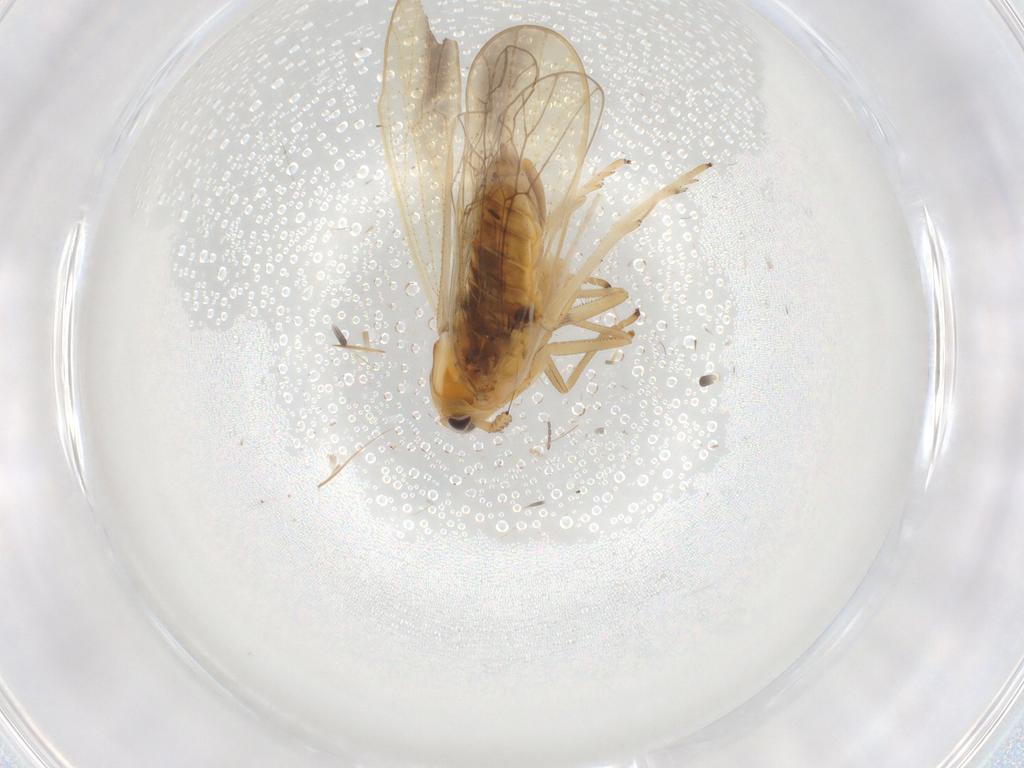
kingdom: Animalia
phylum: Arthropoda
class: Insecta
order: Hemiptera
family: Delphacidae
